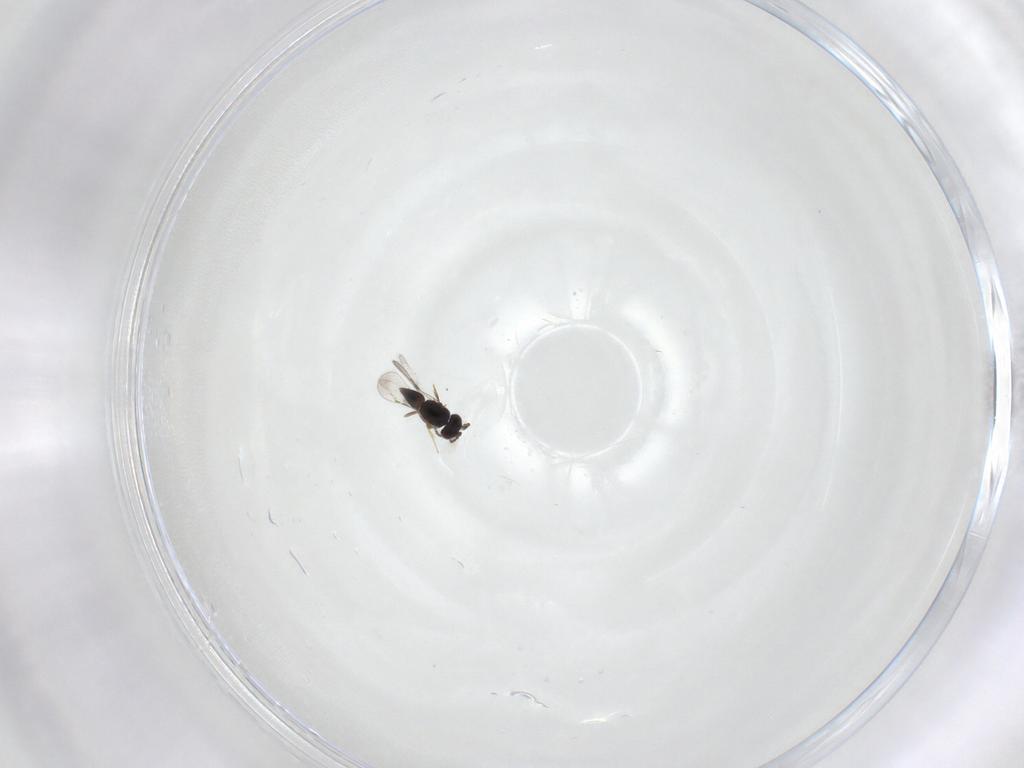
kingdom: Animalia
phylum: Arthropoda
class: Insecta
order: Hymenoptera
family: Ceraphronidae
